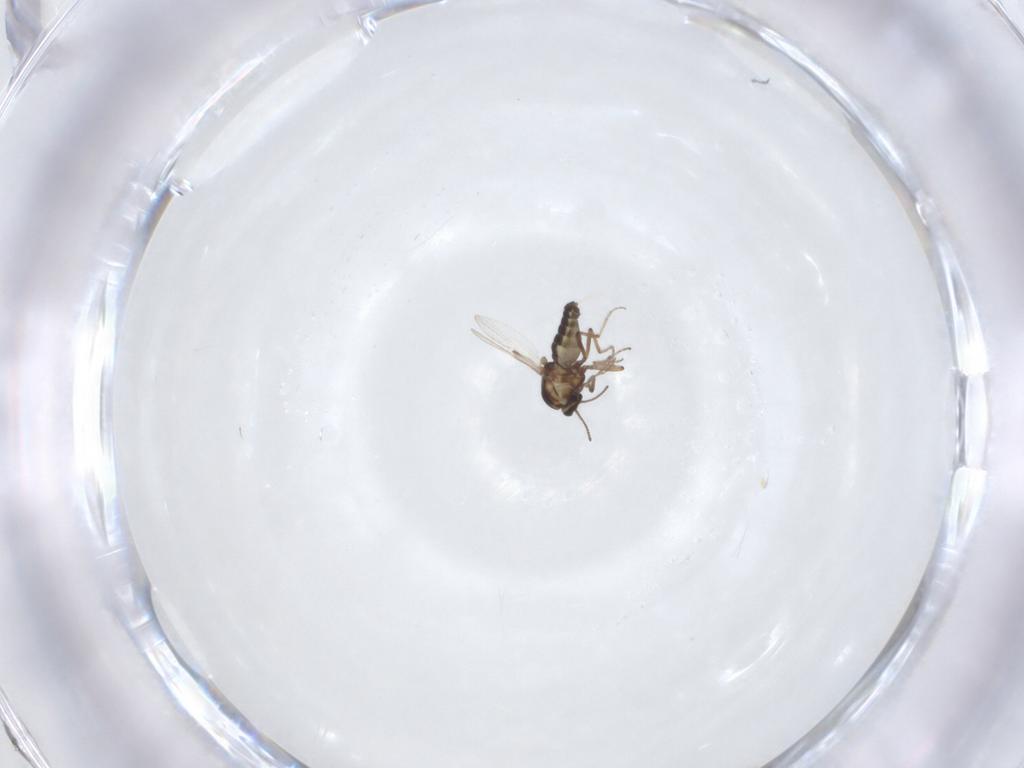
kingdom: Animalia
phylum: Arthropoda
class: Insecta
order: Diptera
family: Ceratopogonidae
